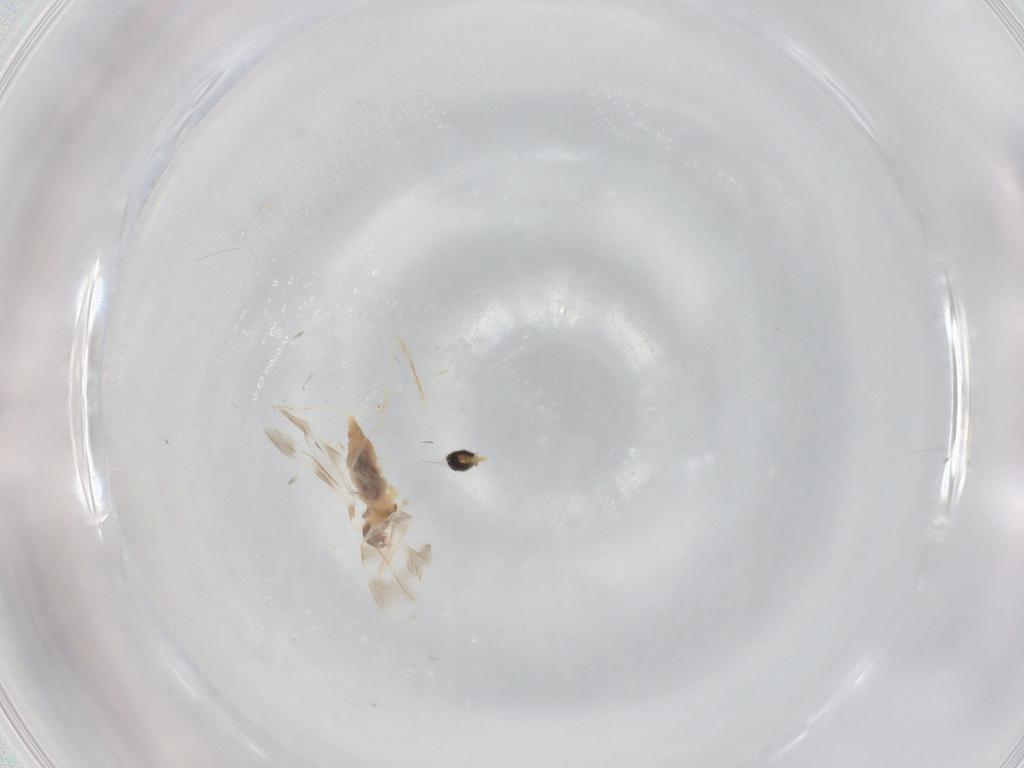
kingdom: Animalia
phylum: Arthropoda
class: Insecta
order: Diptera
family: Cecidomyiidae
